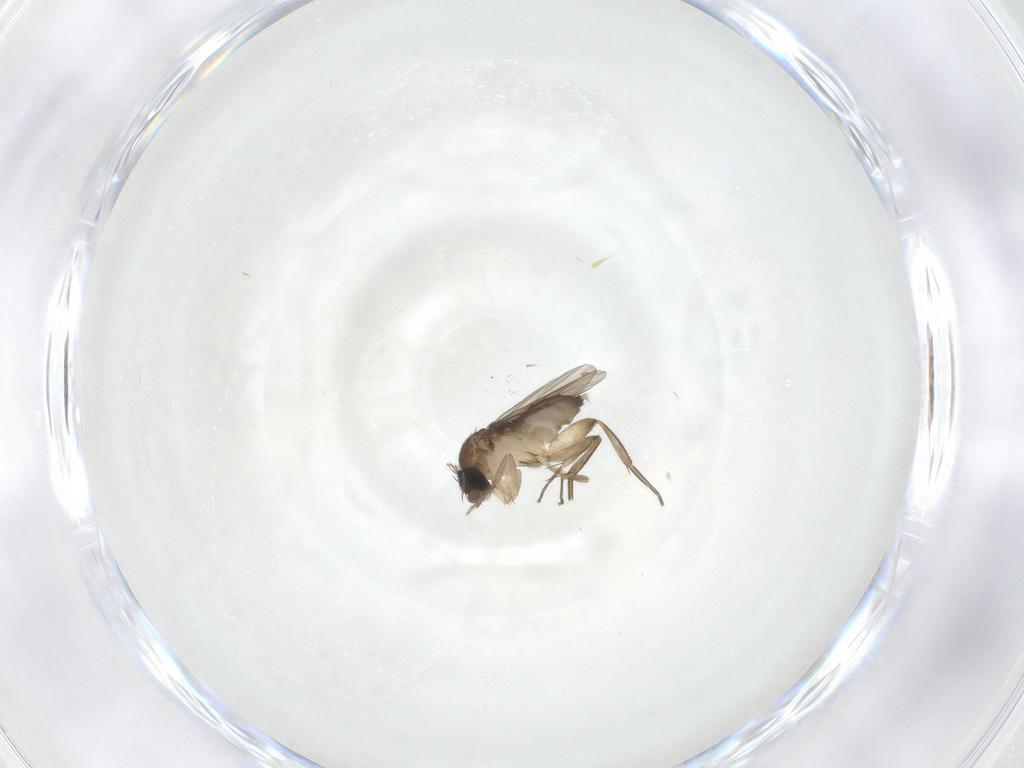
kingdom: Animalia
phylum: Arthropoda
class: Insecta
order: Diptera
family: Phoridae
